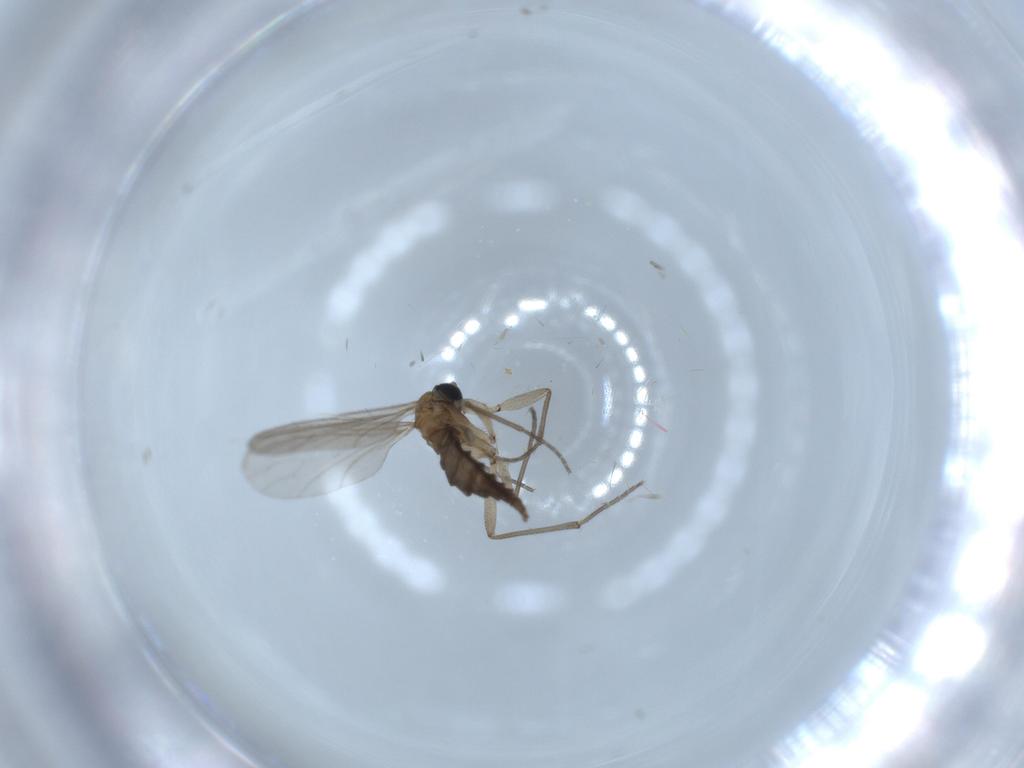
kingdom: Animalia
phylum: Arthropoda
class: Insecta
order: Diptera
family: Sciaridae
